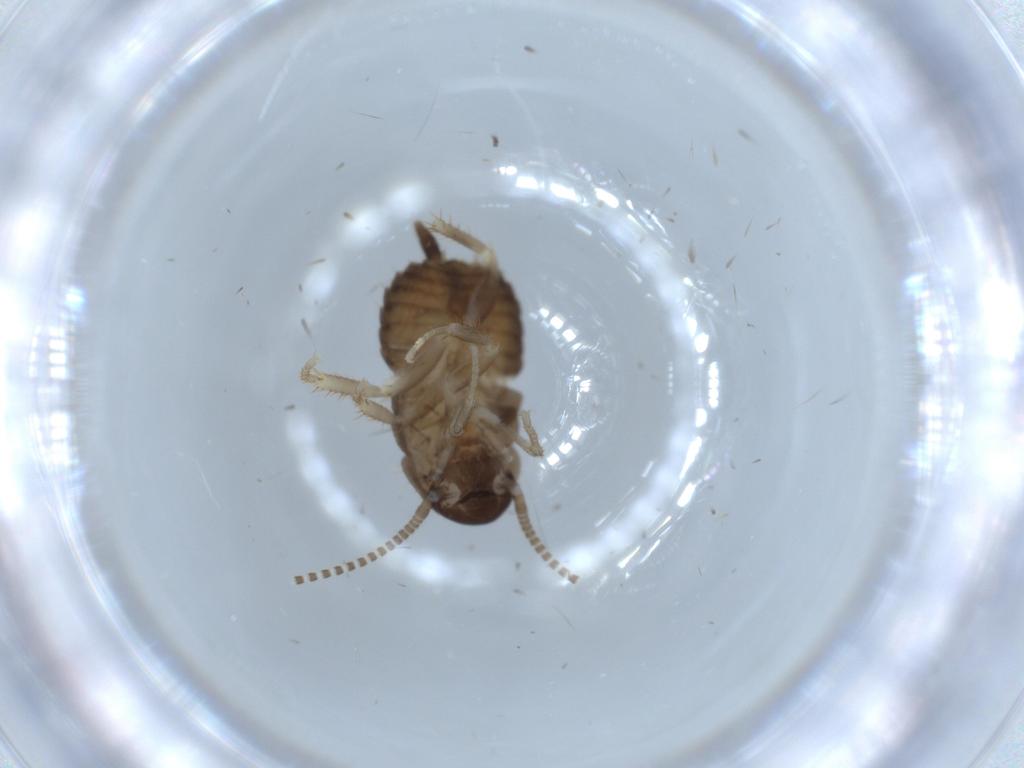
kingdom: Animalia
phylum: Arthropoda
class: Insecta
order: Blattodea
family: Ectobiidae
